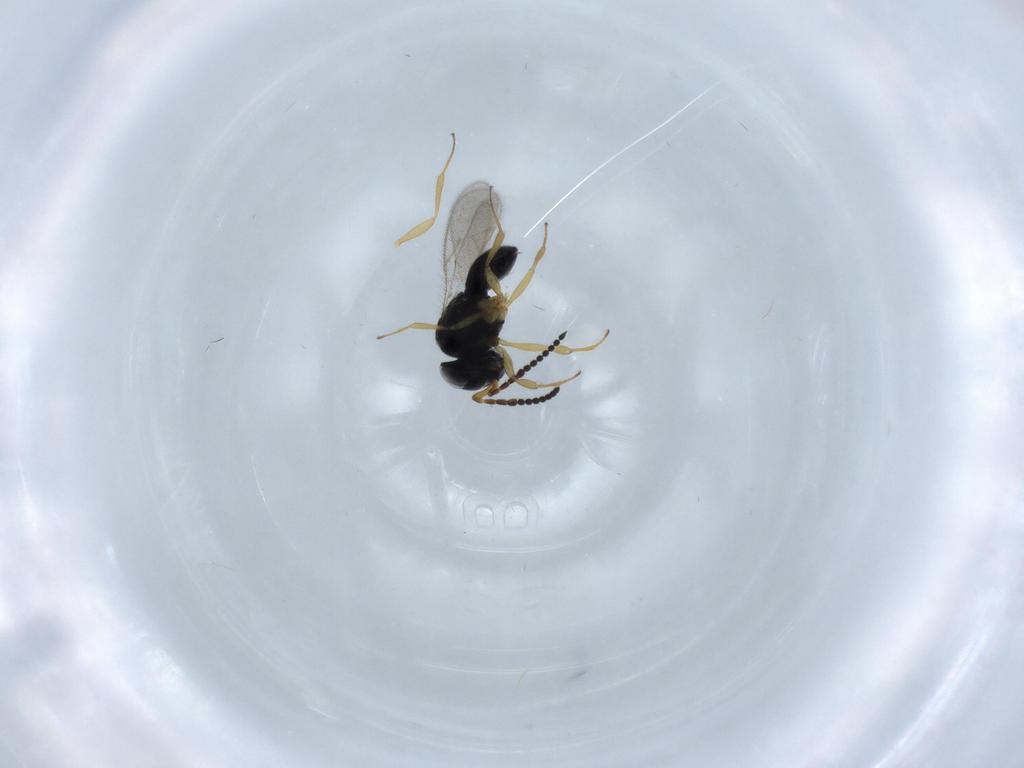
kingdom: Animalia
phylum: Arthropoda
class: Insecta
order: Hymenoptera
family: Scelionidae
